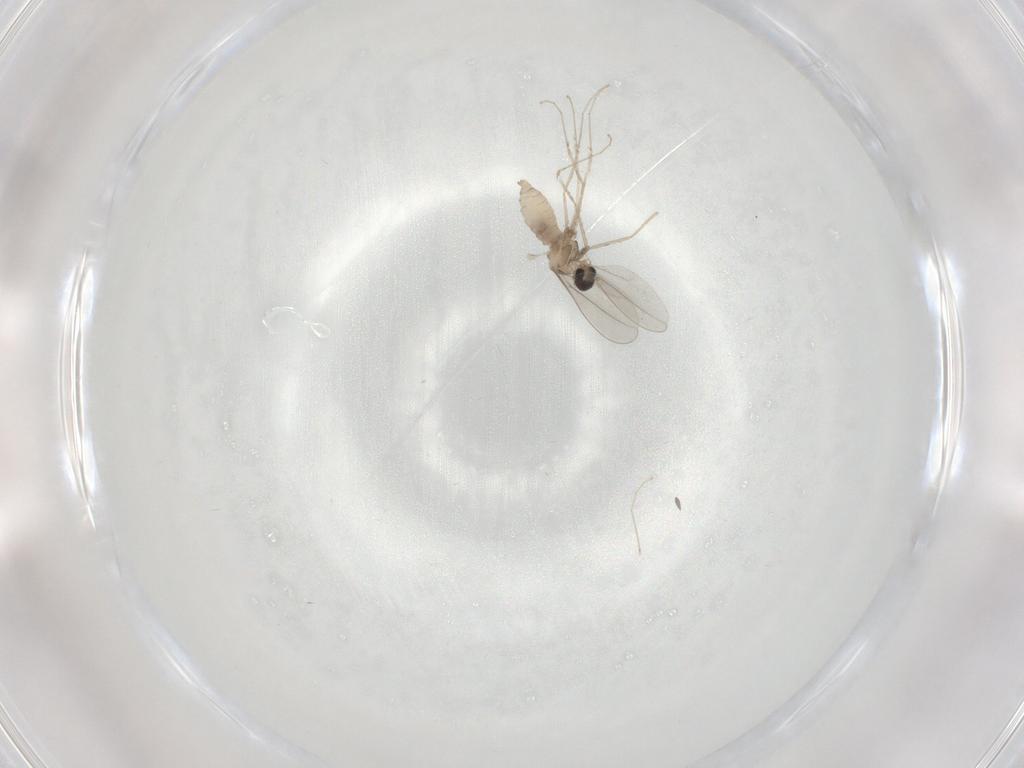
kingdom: Animalia
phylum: Arthropoda
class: Insecta
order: Diptera
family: Cecidomyiidae
